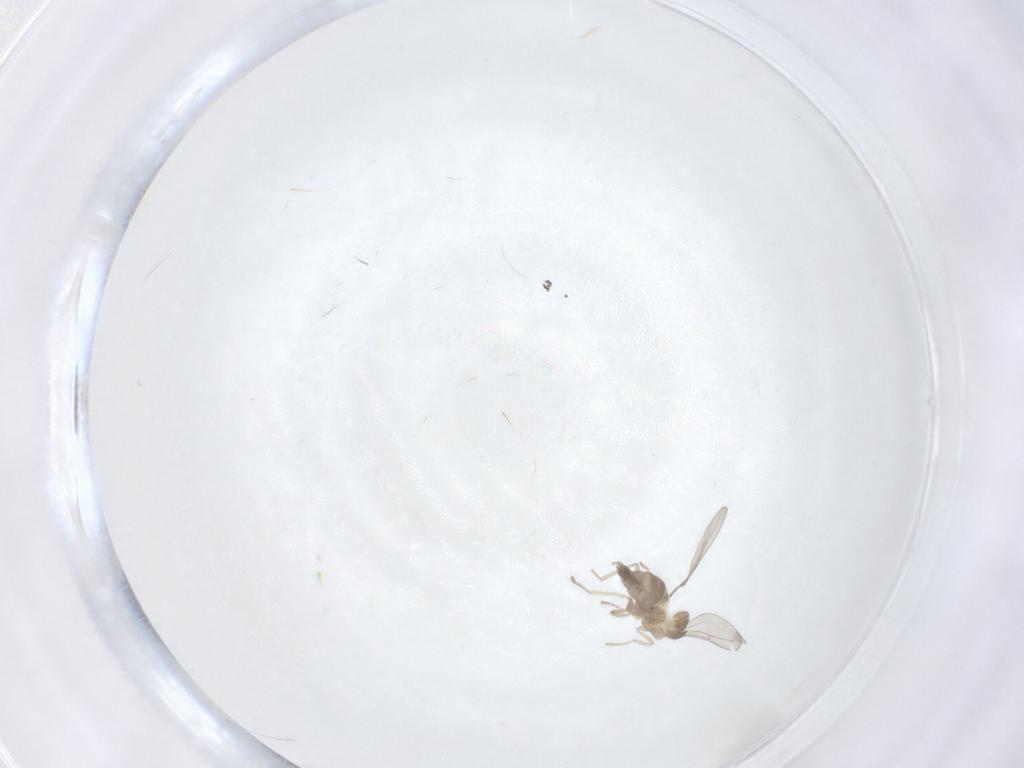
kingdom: Animalia
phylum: Arthropoda
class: Insecta
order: Diptera
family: Cecidomyiidae
